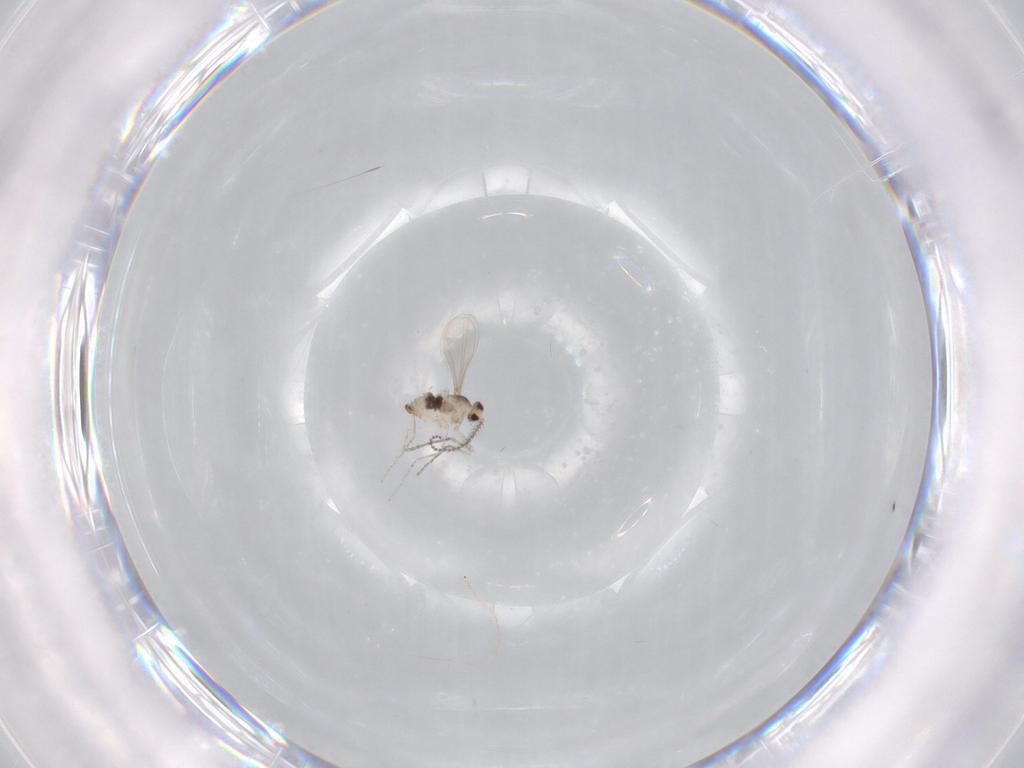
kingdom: Animalia
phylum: Arthropoda
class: Insecta
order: Diptera
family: Cecidomyiidae
